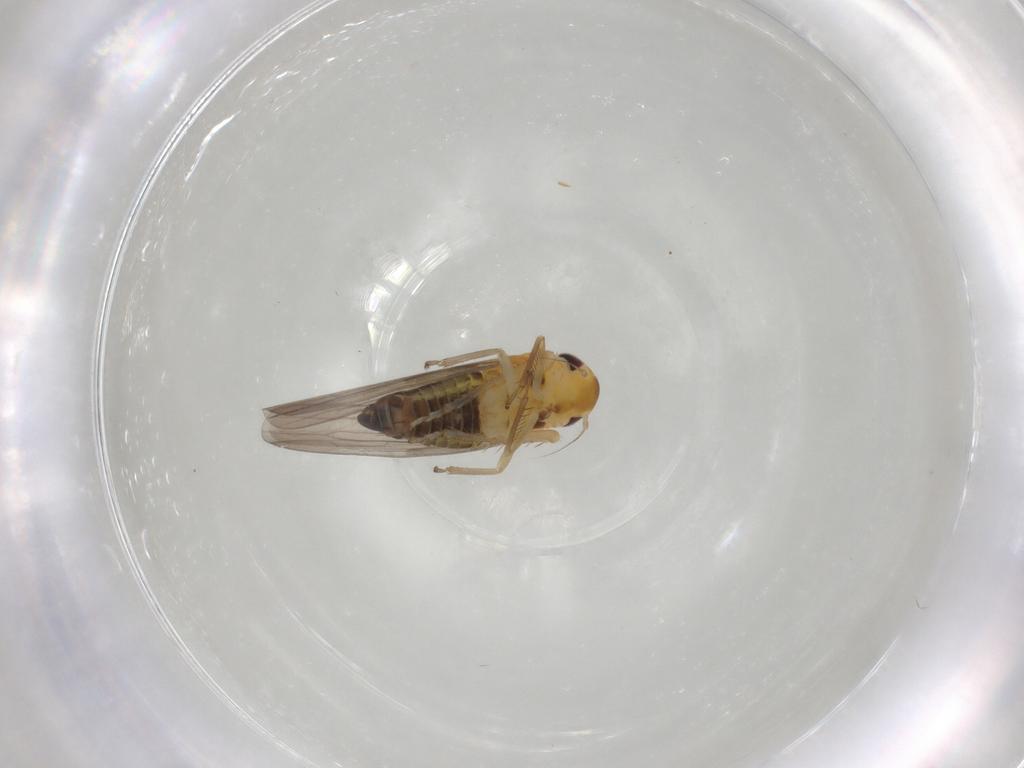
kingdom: Animalia
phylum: Arthropoda
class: Insecta
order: Hemiptera
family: Cicadellidae
